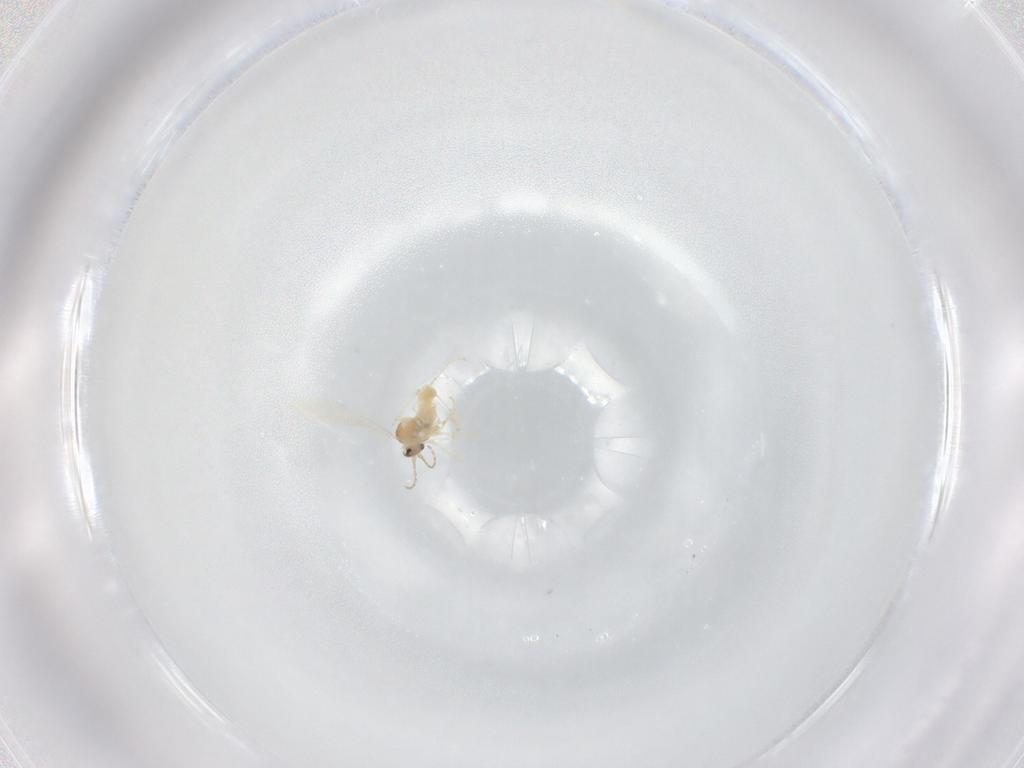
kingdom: Animalia
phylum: Arthropoda
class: Insecta
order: Diptera
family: Cecidomyiidae
